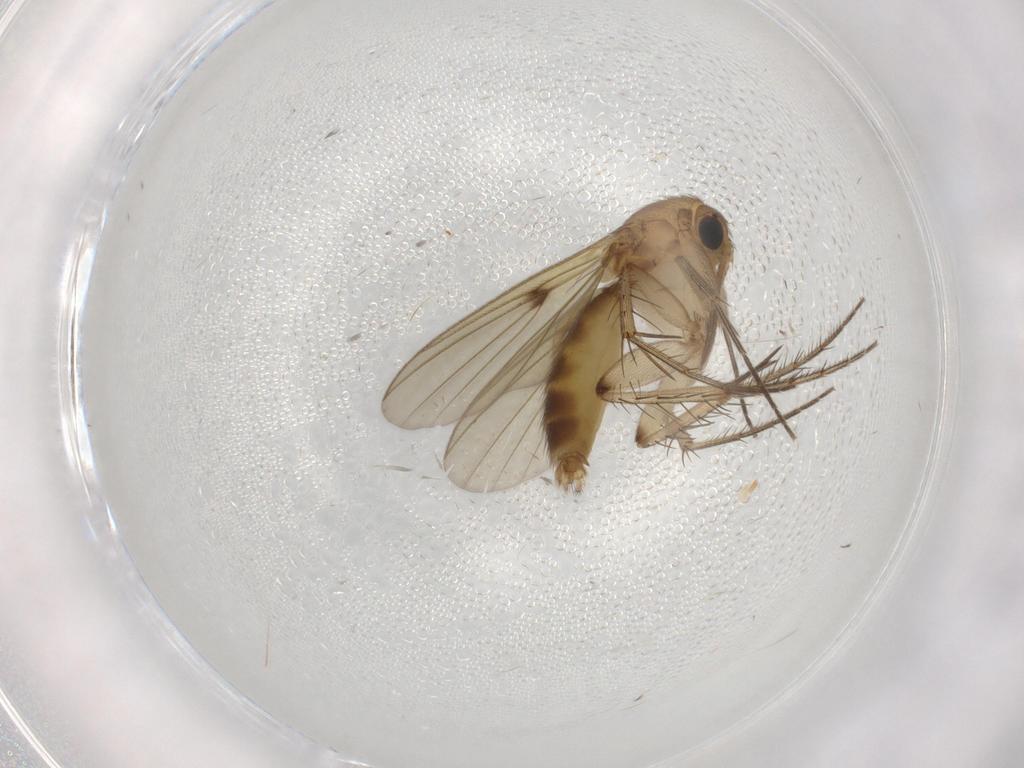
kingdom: Animalia
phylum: Arthropoda
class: Insecta
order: Diptera
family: Mycetophilidae
